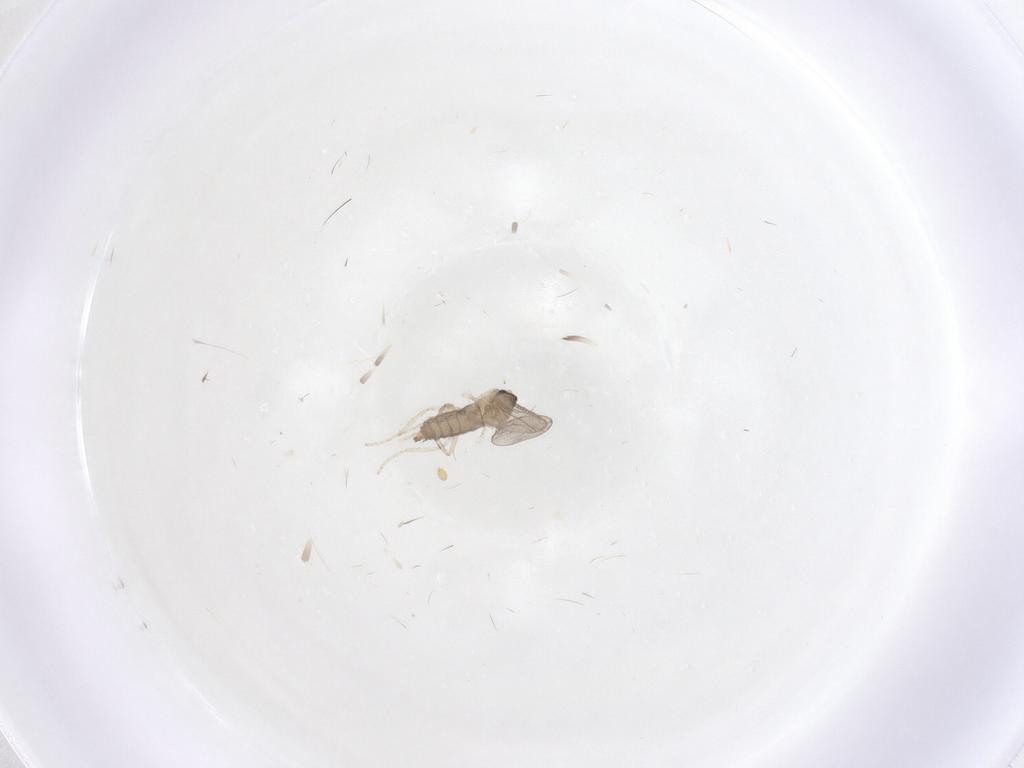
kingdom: Animalia
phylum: Arthropoda
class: Insecta
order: Diptera
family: Cecidomyiidae
